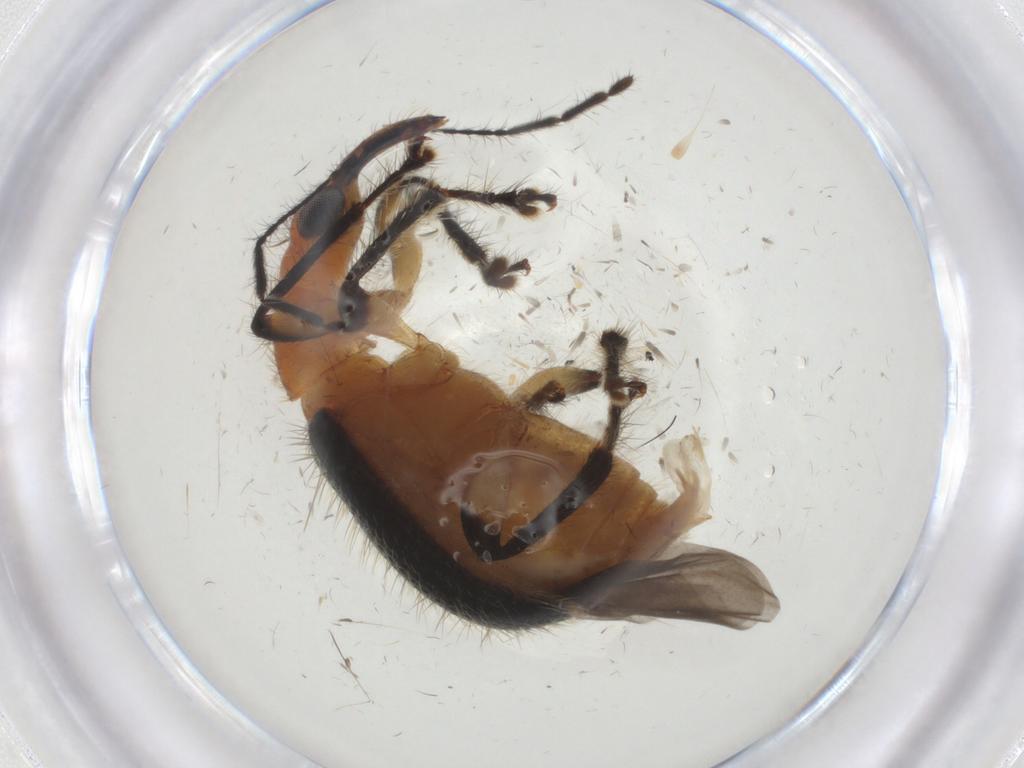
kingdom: Animalia
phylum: Arthropoda
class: Insecta
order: Coleoptera
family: Attelabidae
